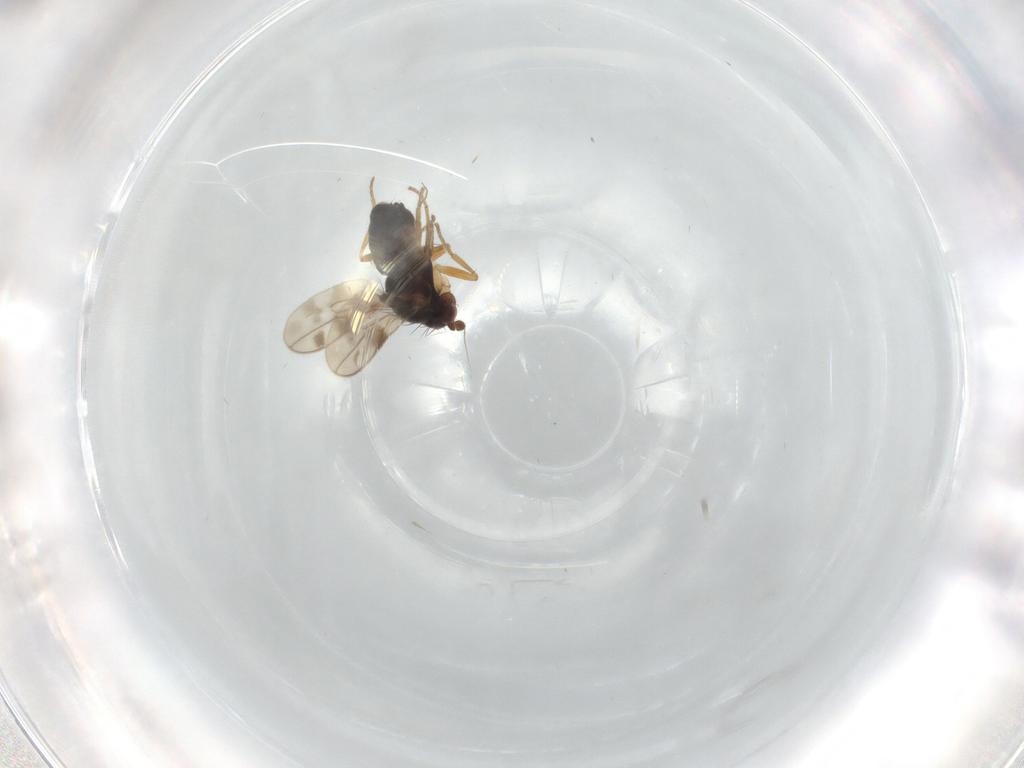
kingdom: Animalia
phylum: Arthropoda
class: Insecta
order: Diptera
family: Sphaeroceridae
